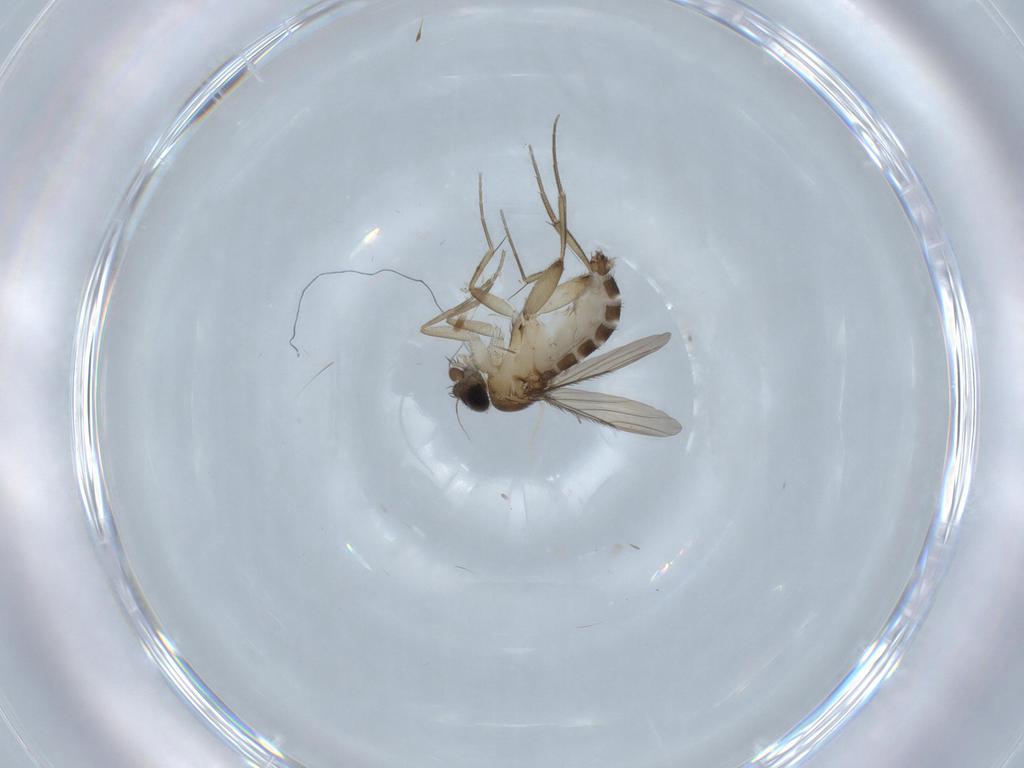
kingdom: Animalia
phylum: Arthropoda
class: Insecta
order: Diptera
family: Phoridae
